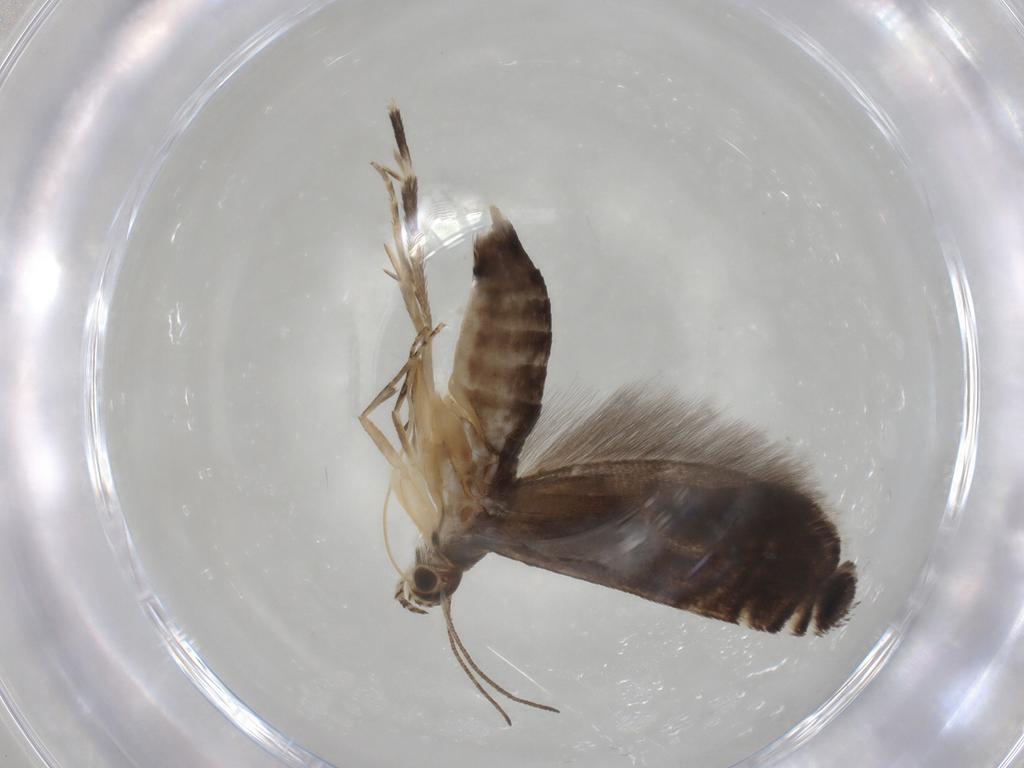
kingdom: Animalia
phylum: Arthropoda
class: Insecta
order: Lepidoptera
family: Glyphipterigidae
